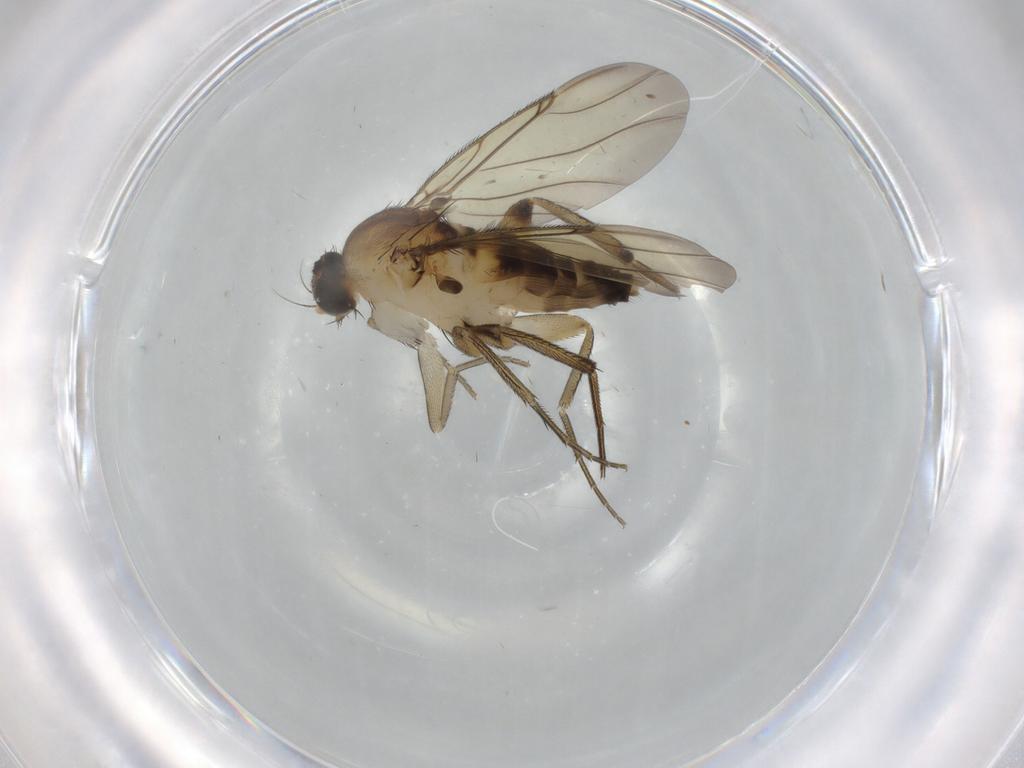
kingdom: Animalia
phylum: Arthropoda
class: Insecta
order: Diptera
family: Phoridae
